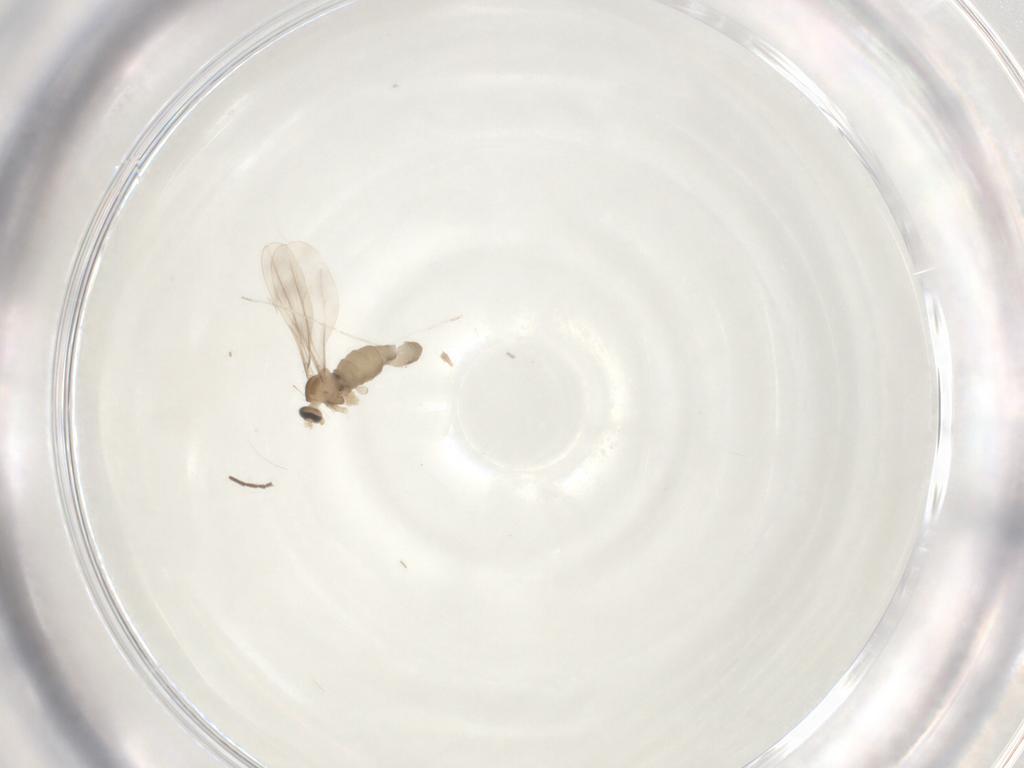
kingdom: Animalia
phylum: Arthropoda
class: Insecta
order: Diptera
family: Cecidomyiidae
